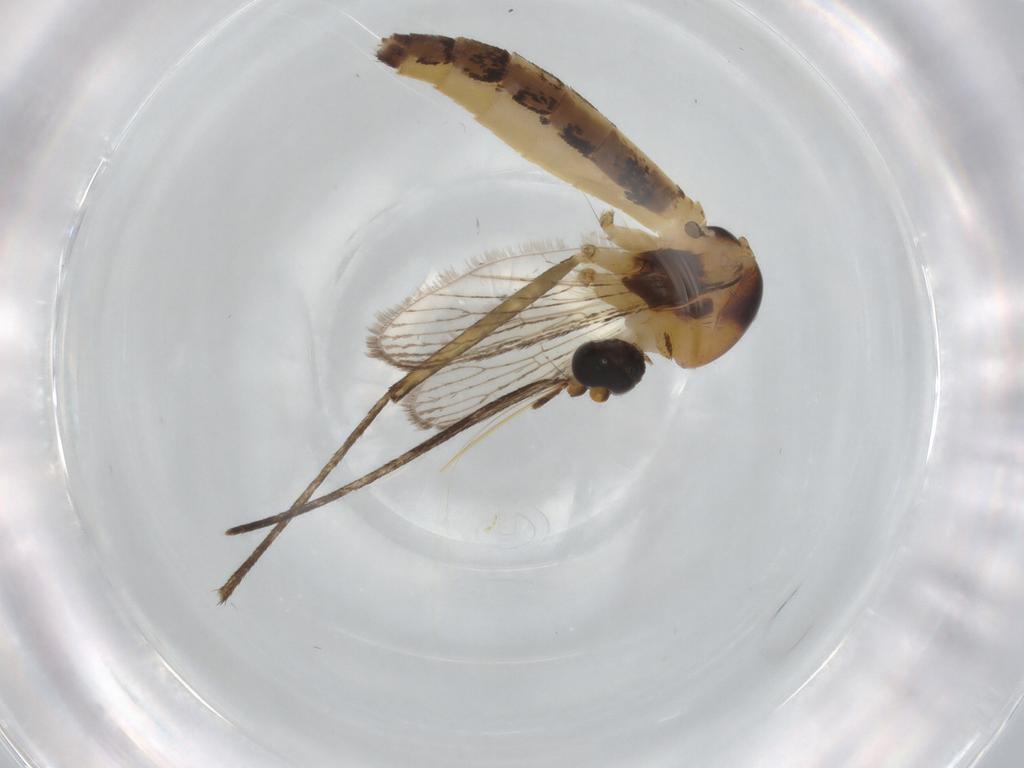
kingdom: Animalia
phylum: Arthropoda
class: Insecta
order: Diptera
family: Culicidae
